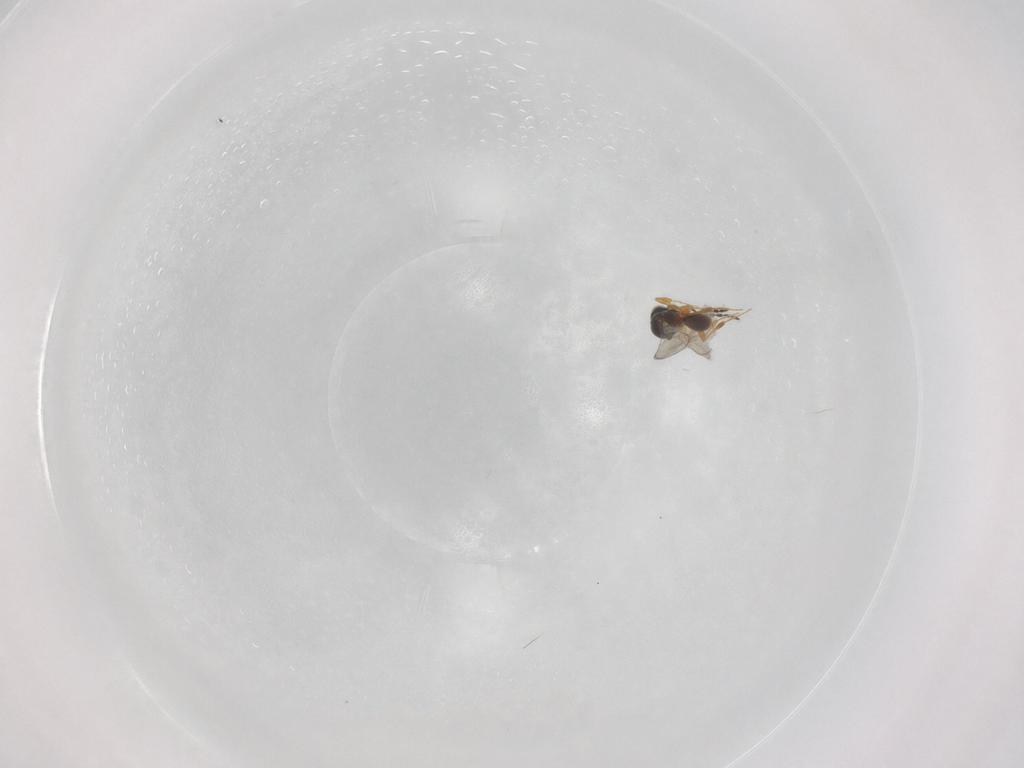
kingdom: Animalia
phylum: Arthropoda
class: Insecta
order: Hymenoptera
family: Platygastridae
